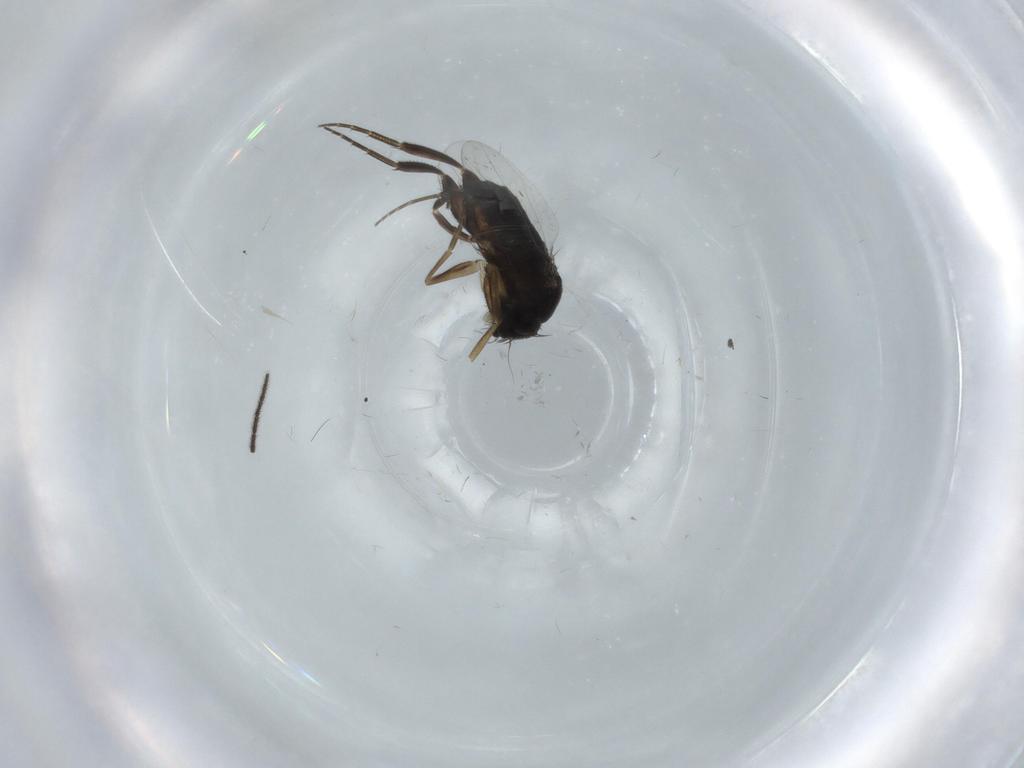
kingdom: Animalia
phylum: Arthropoda
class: Insecta
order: Diptera
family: Phoridae
